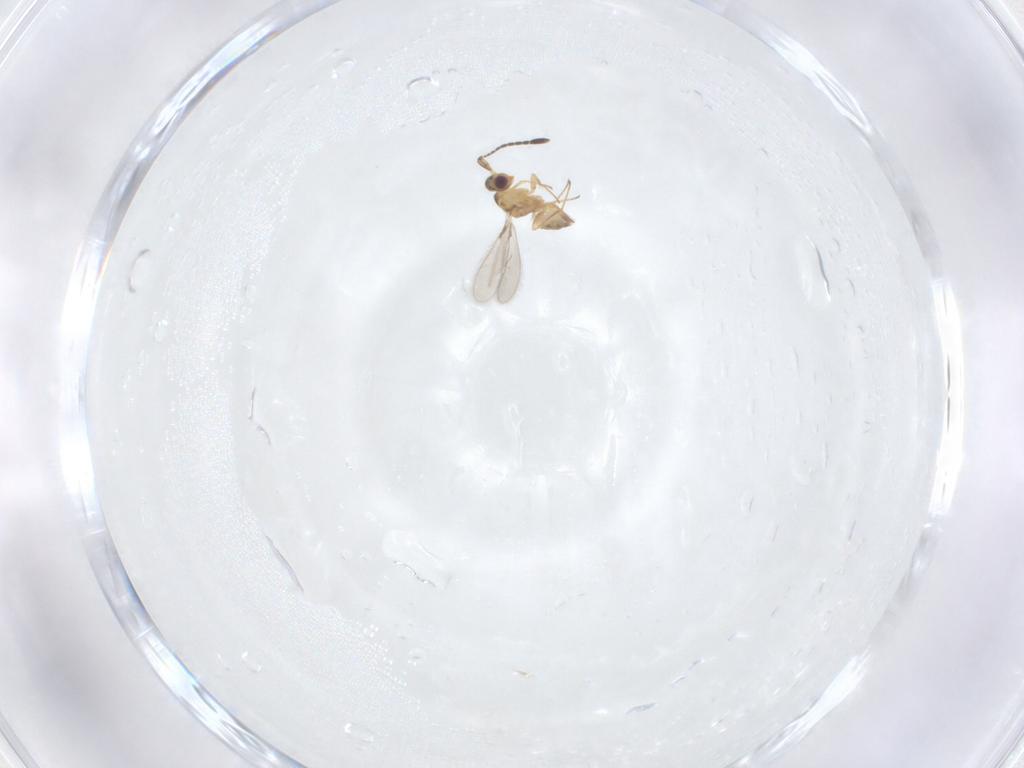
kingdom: Animalia
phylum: Arthropoda
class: Insecta
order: Hymenoptera
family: Mymaridae
